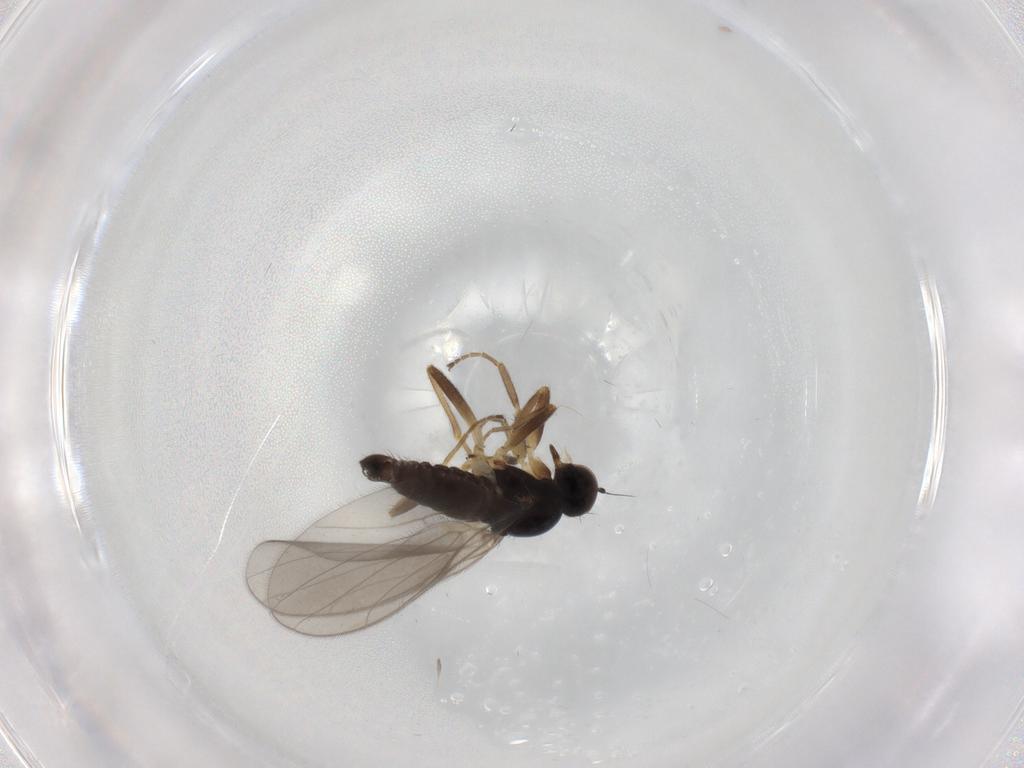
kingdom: Animalia
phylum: Arthropoda
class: Insecta
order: Diptera
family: Hybotidae
